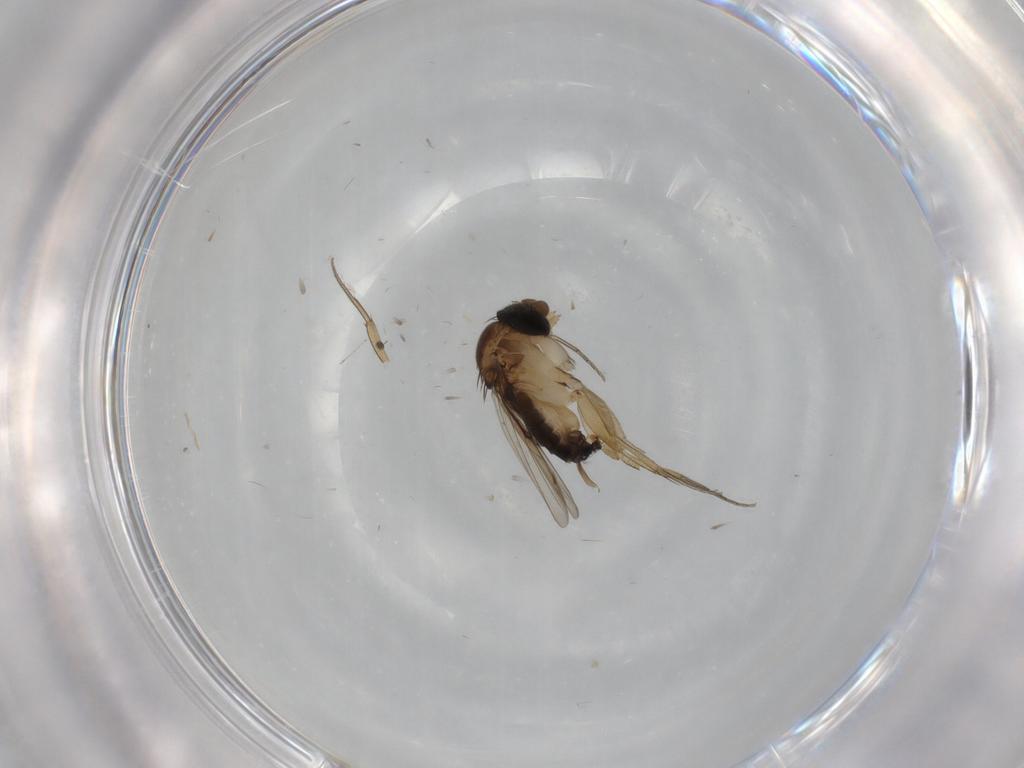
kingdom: Animalia
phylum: Arthropoda
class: Insecta
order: Diptera
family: Phoridae
